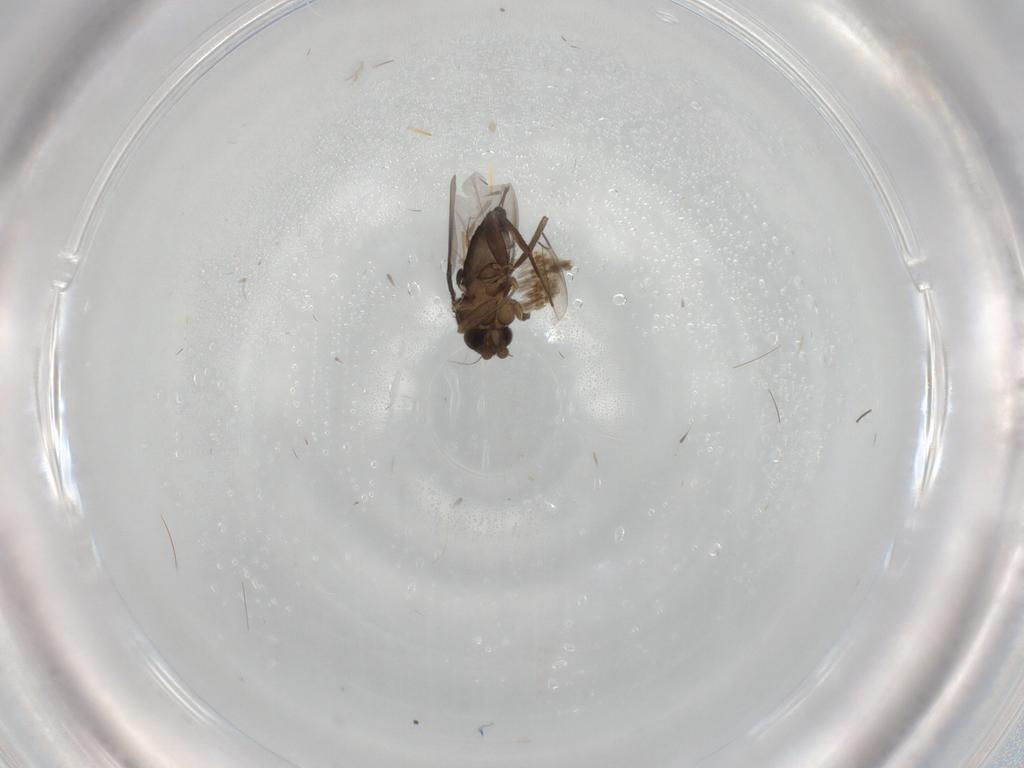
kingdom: Animalia
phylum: Arthropoda
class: Insecta
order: Diptera
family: Phoridae
